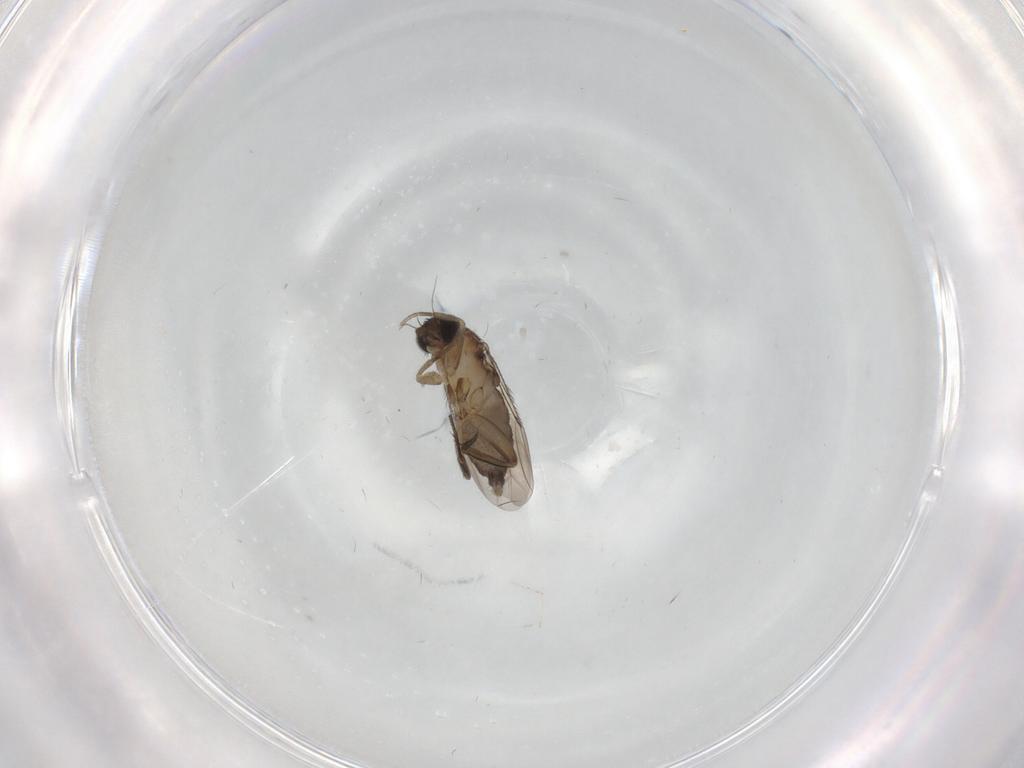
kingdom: Animalia
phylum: Arthropoda
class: Insecta
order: Diptera
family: Phoridae
